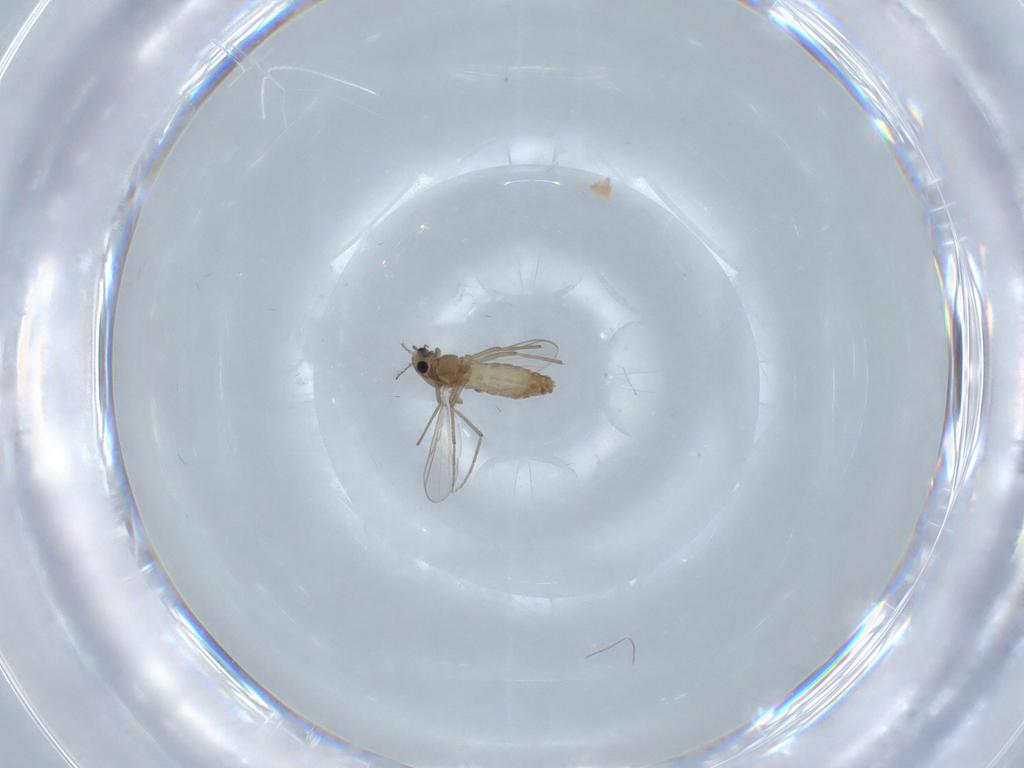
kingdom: Animalia
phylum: Arthropoda
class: Insecta
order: Diptera
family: Chironomidae
